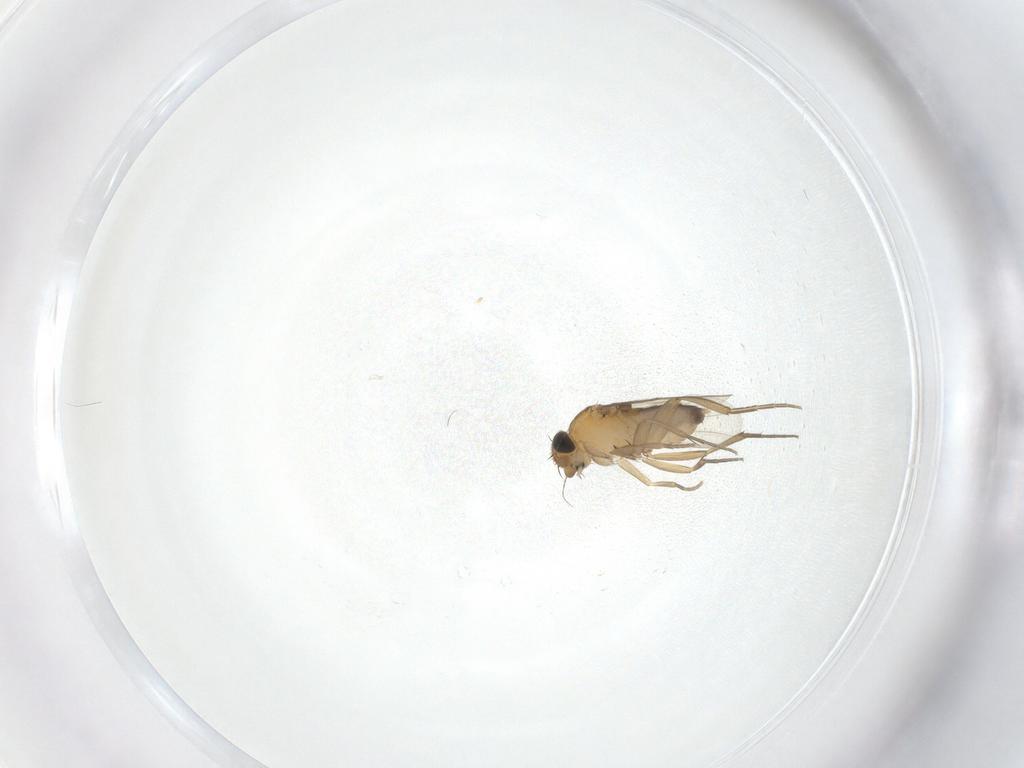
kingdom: Animalia
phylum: Arthropoda
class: Insecta
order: Diptera
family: Phoridae
